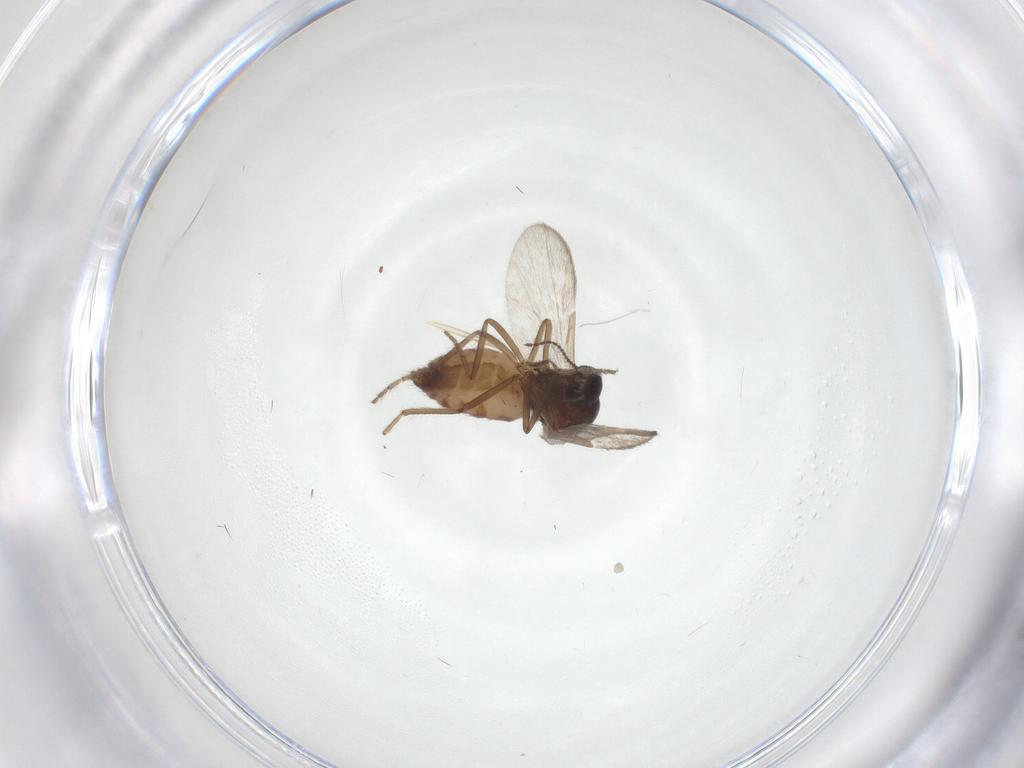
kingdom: Animalia
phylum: Arthropoda
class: Insecta
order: Diptera
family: Ceratopogonidae
